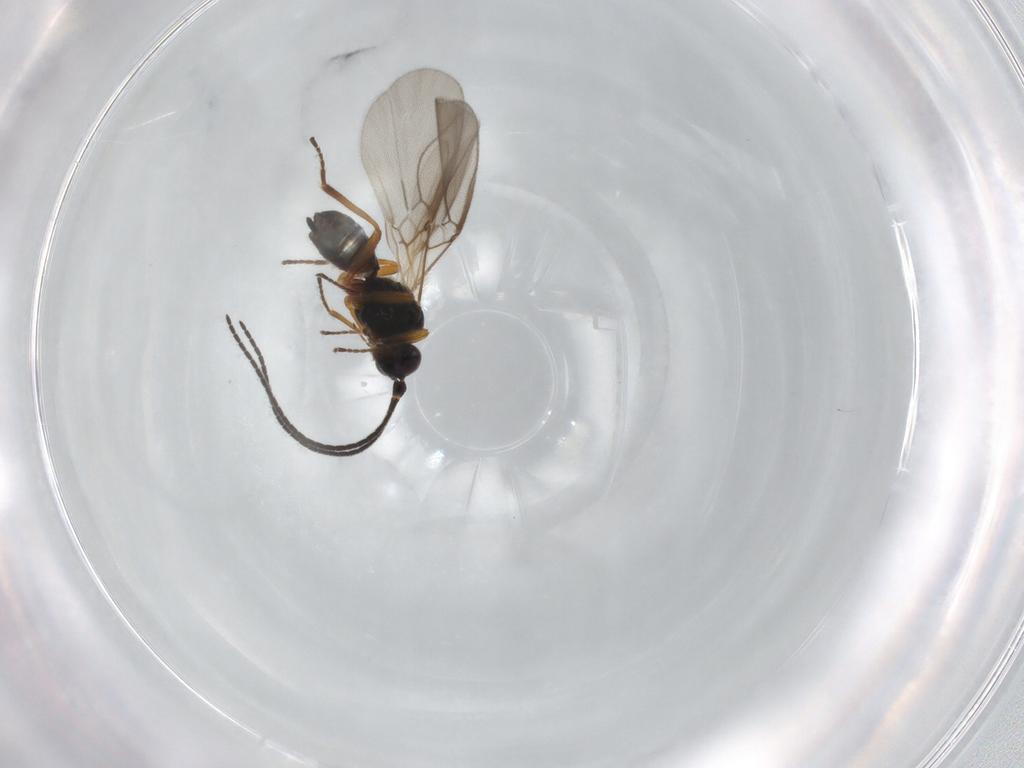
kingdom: Animalia
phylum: Arthropoda
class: Insecta
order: Hymenoptera
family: Braconidae
